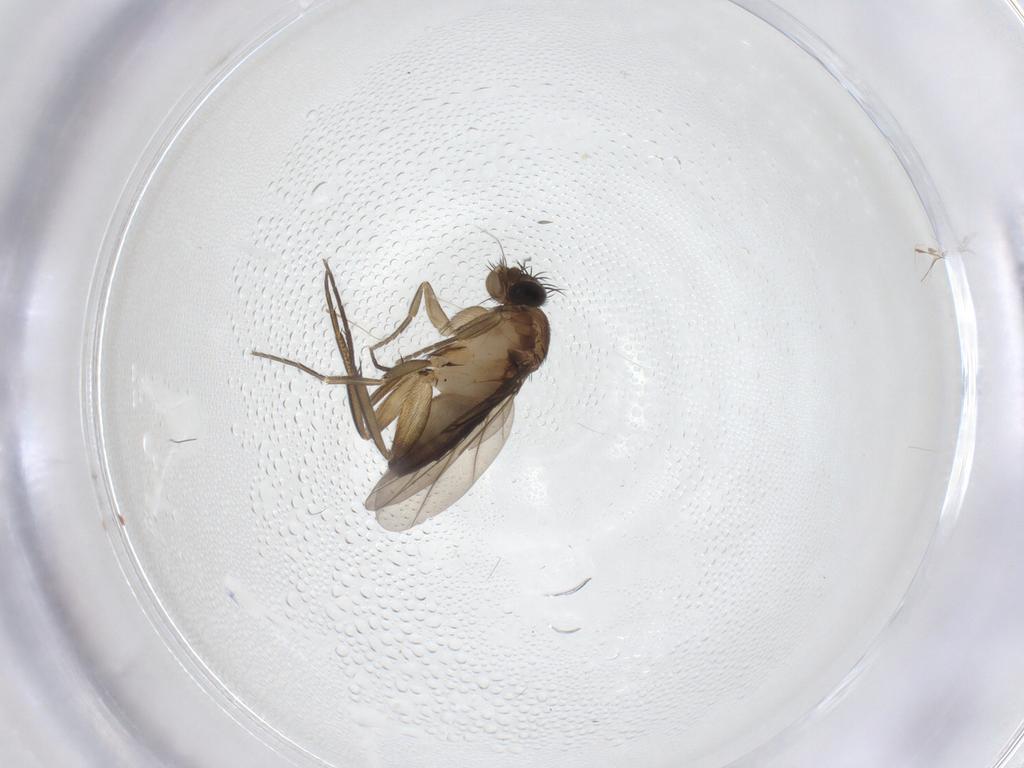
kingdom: Animalia
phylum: Arthropoda
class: Insecta
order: Diptera
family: Phoridae
